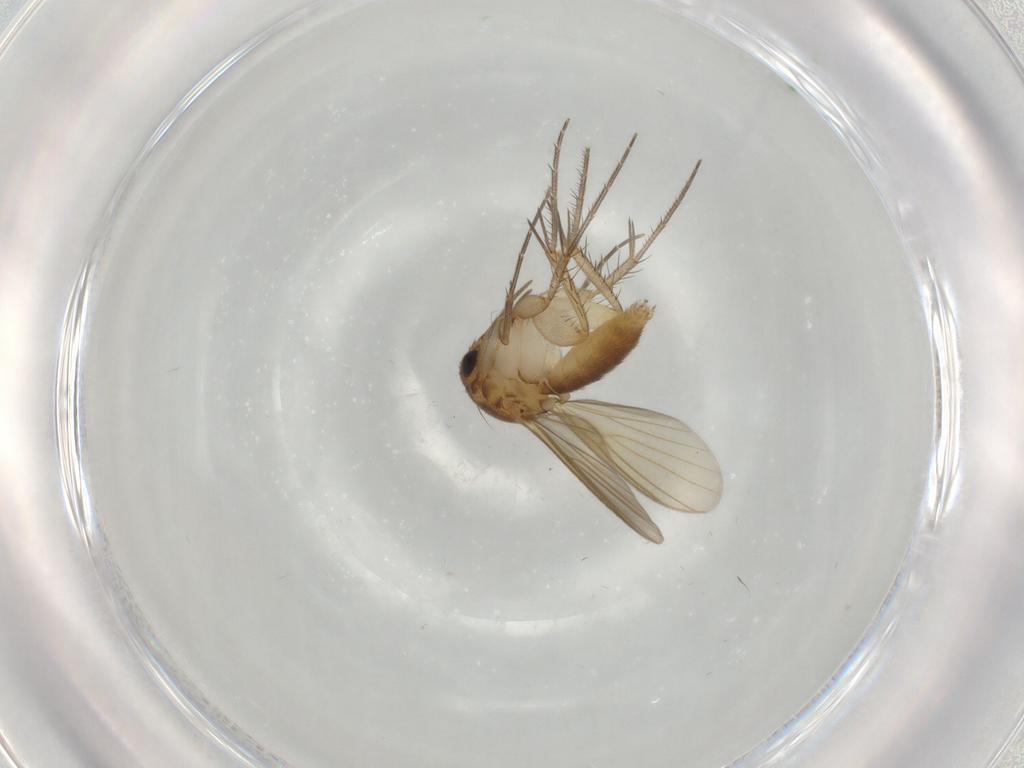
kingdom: Animalia
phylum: Arthropoda
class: Insecta
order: Diptera
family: Mycetophilidae
